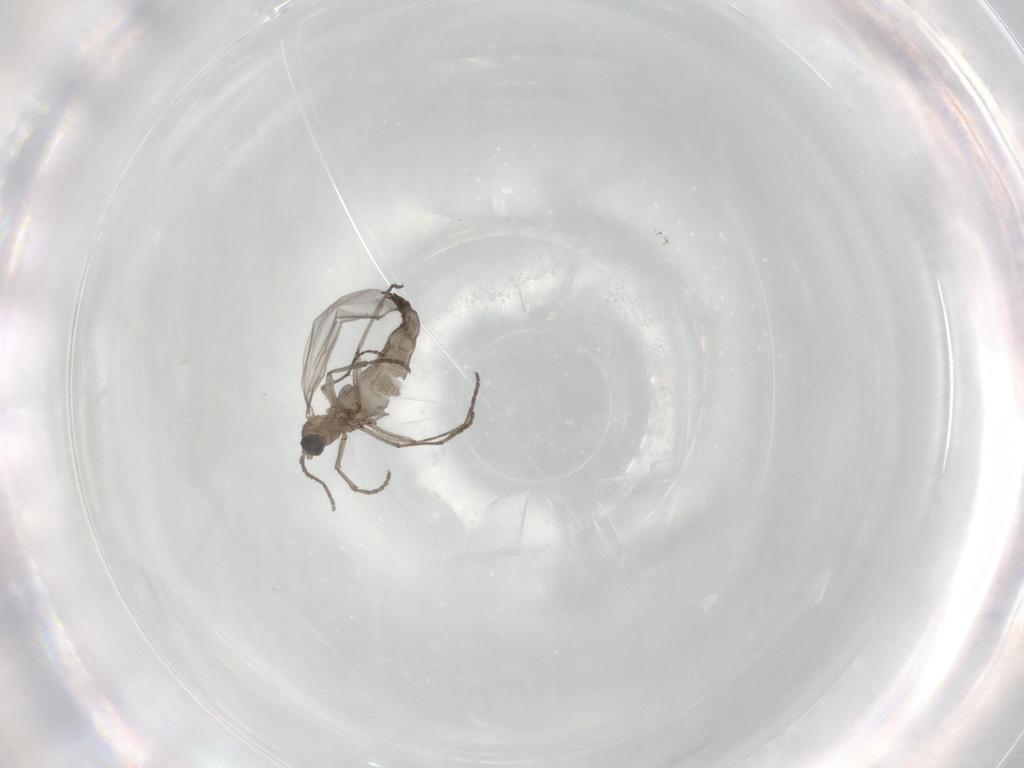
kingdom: Animalia
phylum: Arthropoda
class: Insecta
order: Diptera
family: Sciaridae
